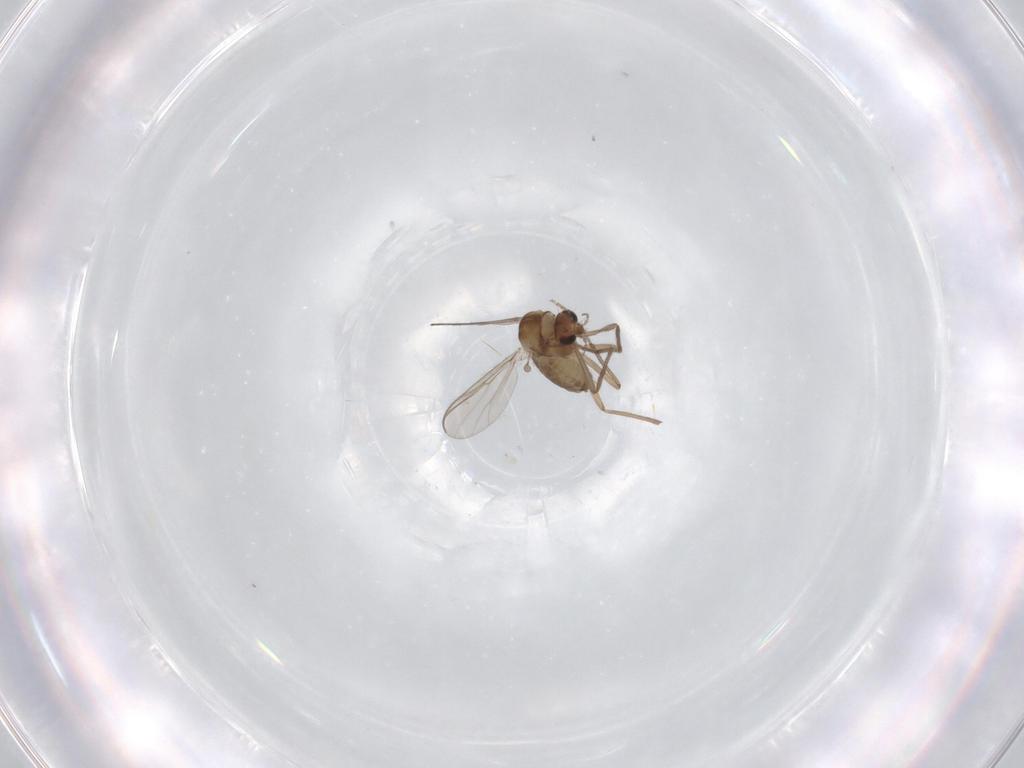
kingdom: Animalia
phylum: Arthropoda
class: Insecta
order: Diptera
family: Chironomidae
